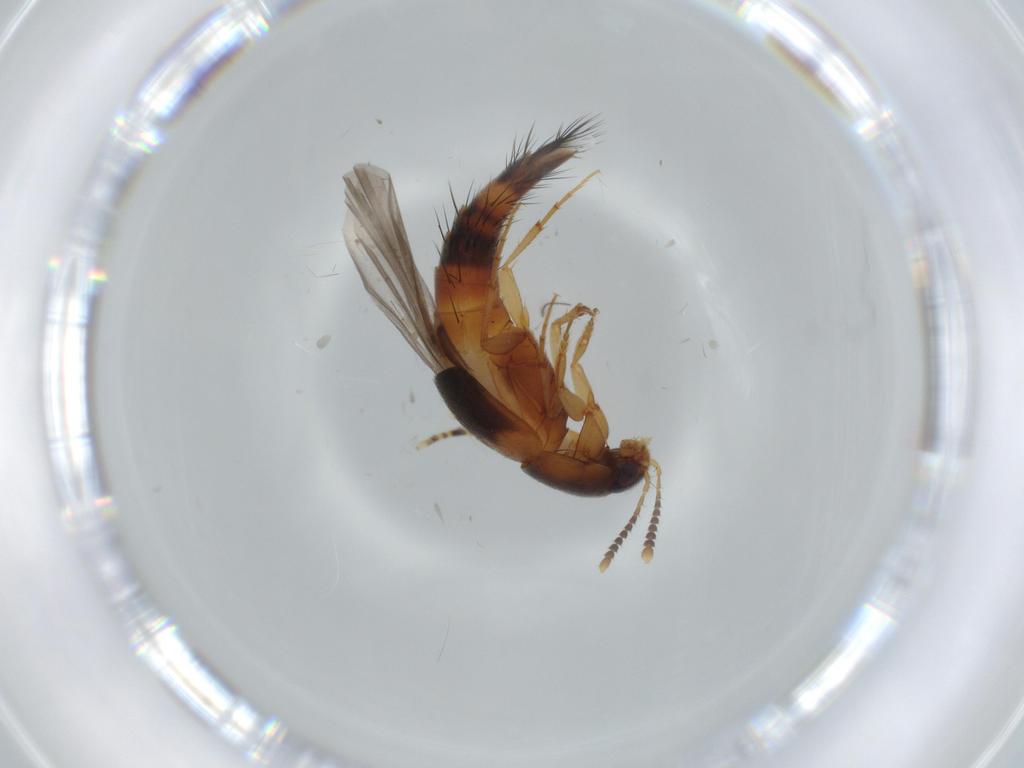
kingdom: Animalia
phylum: Arthropoda
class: Insecta
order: Coleoptera
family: Staphylinidae
